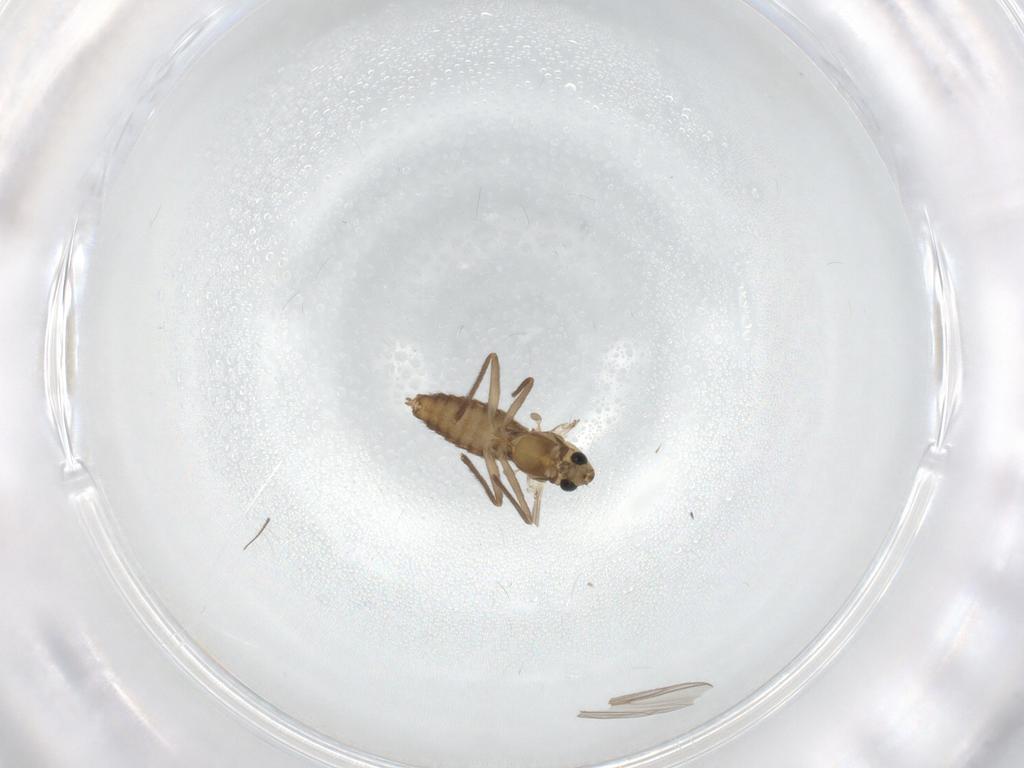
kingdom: Animalia
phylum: Arthropoda
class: Insecta
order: Diptera
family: Chironomidae
